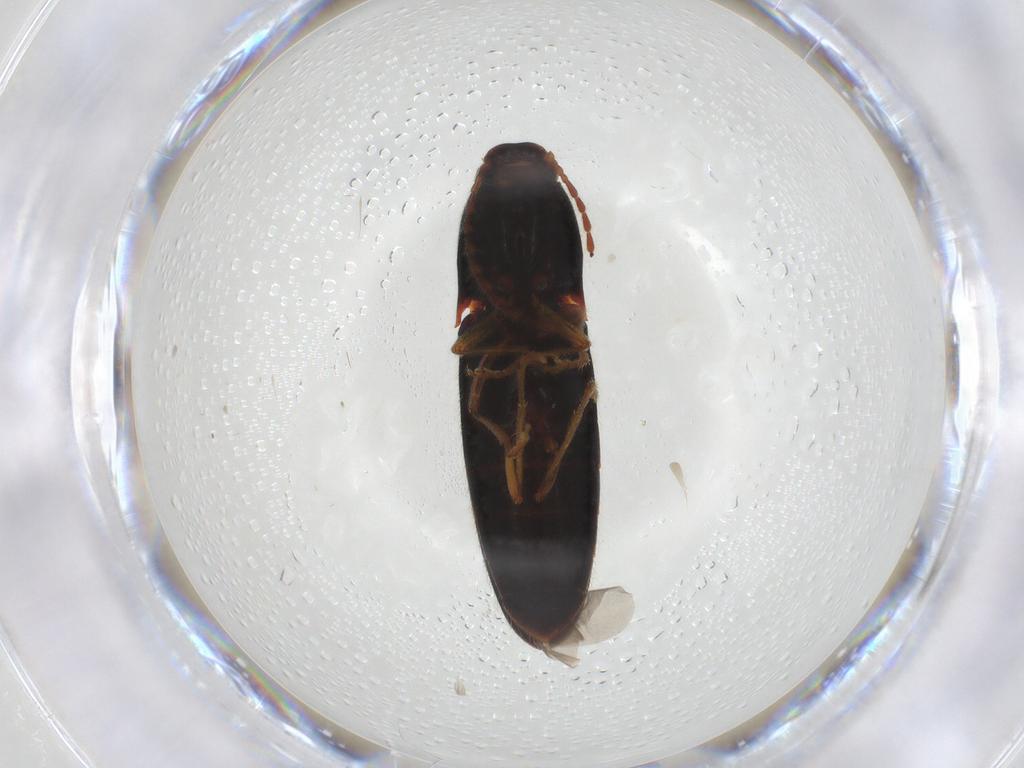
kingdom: Animalia
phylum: Arthropoda
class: Insecta
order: Coleoptera
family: Elateridae
